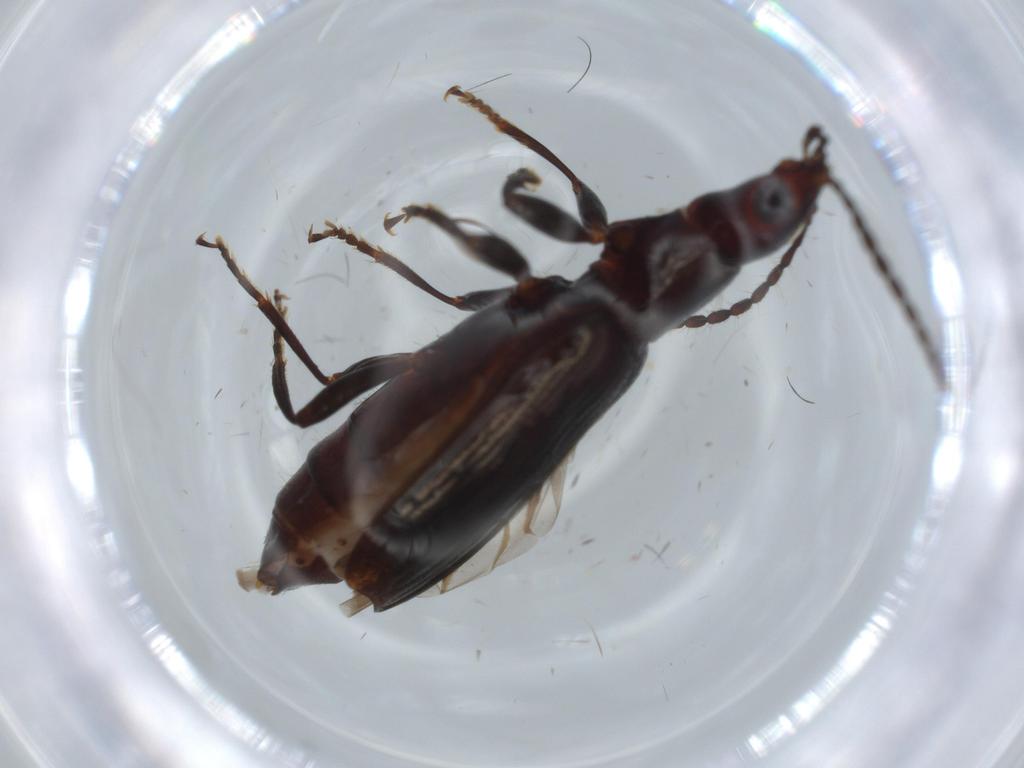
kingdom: Animalia
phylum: Arthropoda
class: Insecta
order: Coleoptera
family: Carabidae
